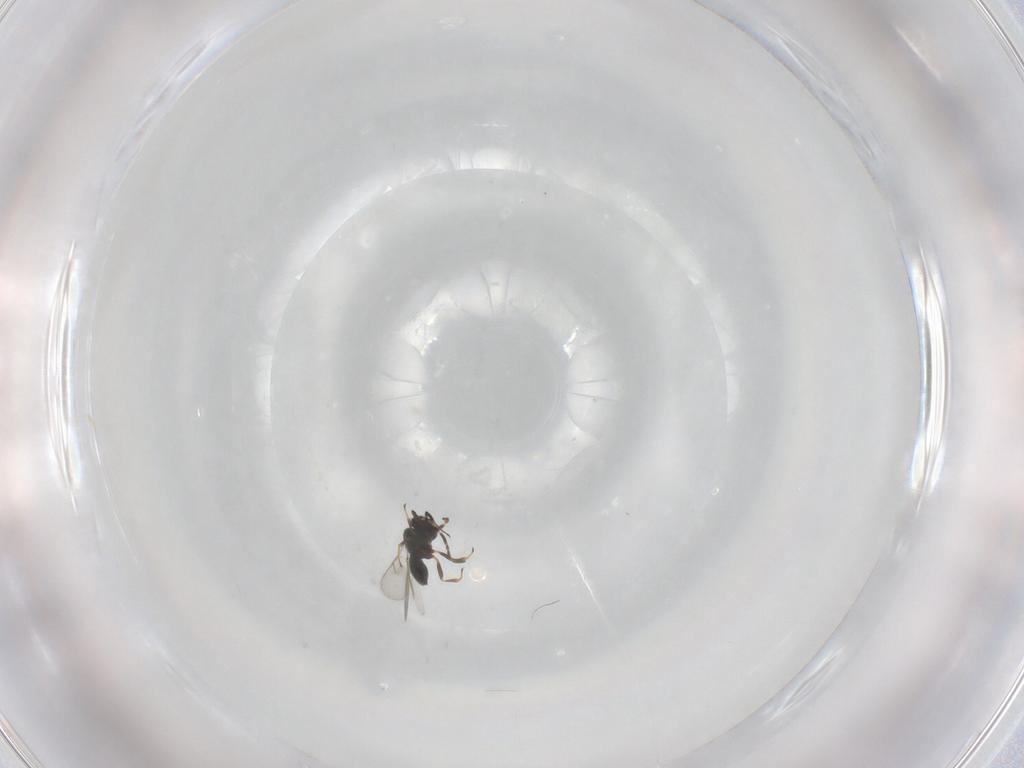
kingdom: Animalia
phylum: Arthropoda
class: Insecta
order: Hymenoptera
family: Scelionidae
